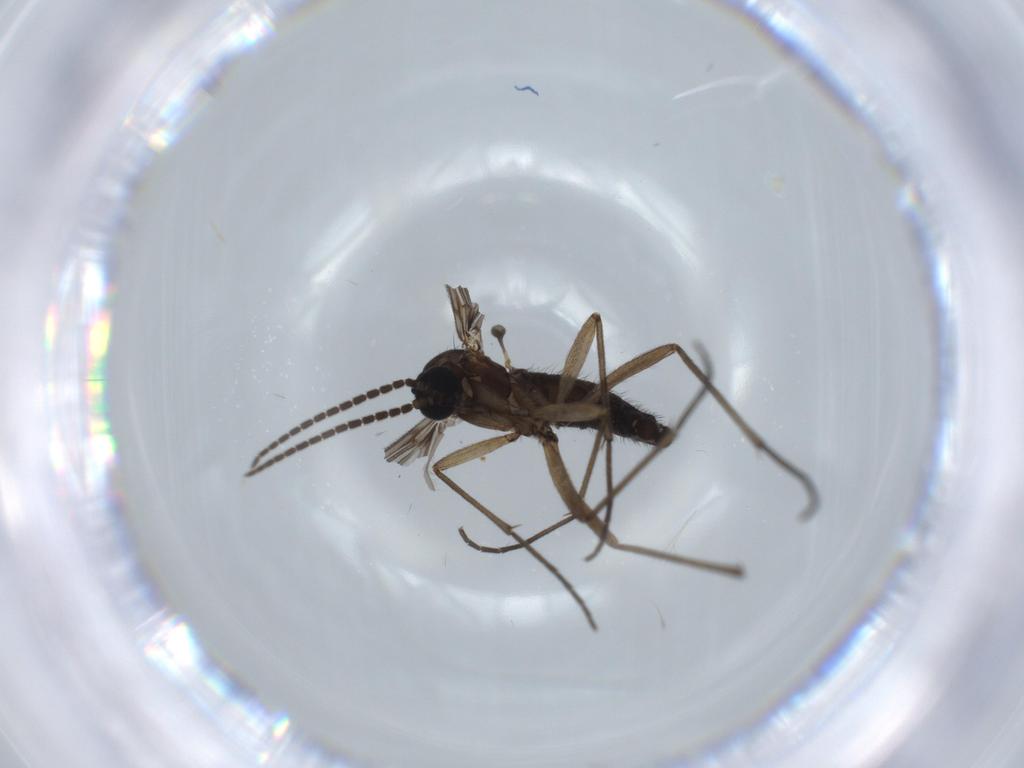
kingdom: Animalia
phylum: Arthropoda
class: Insecta
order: Diptera
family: Sciaridae
